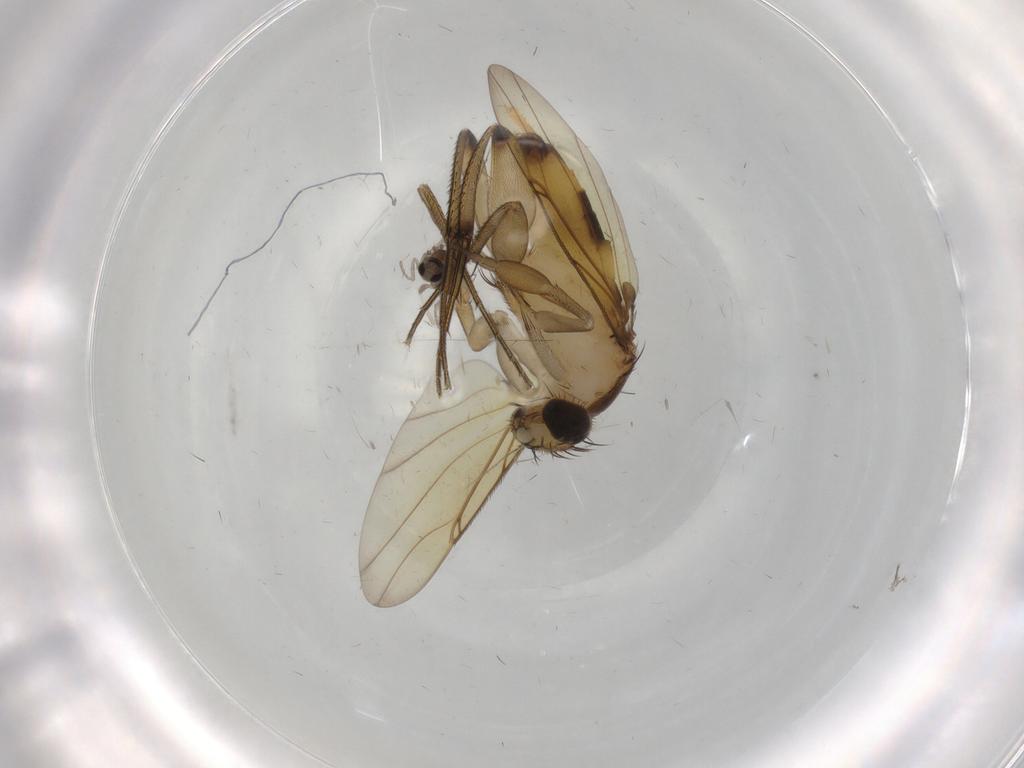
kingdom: Animalia
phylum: Arthropoda
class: Insecta
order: Diptera
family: Phoridae
